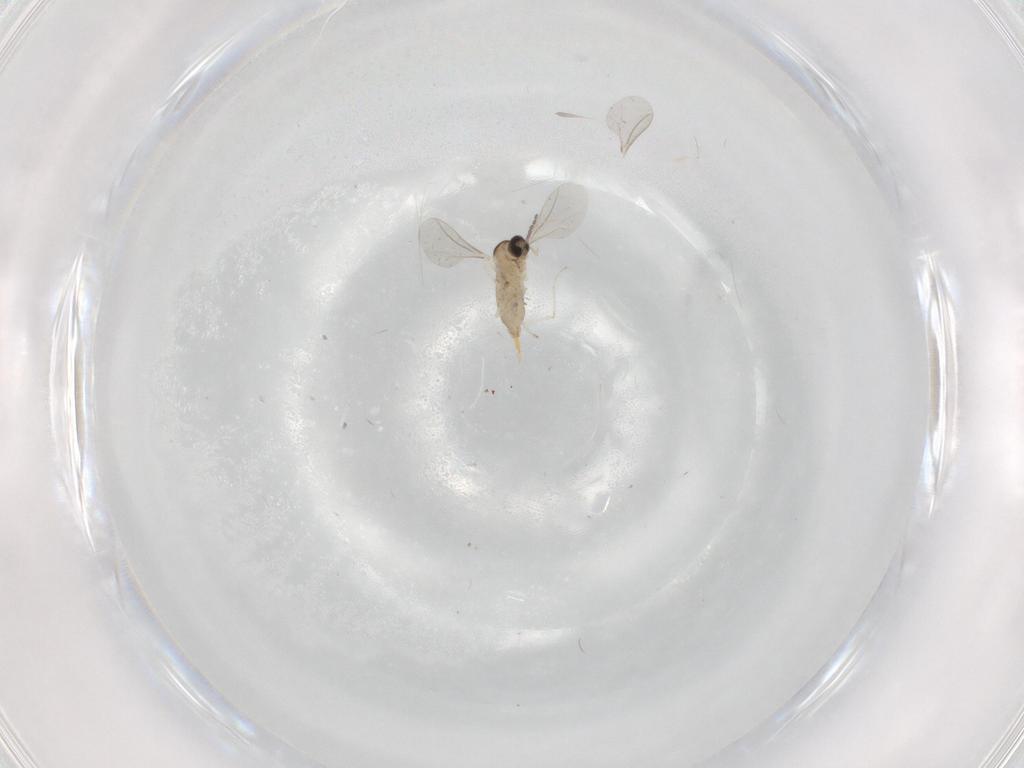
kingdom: Animalia
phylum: Arthropoda
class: Insecta
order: Diptera
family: Cecidomyiidae
